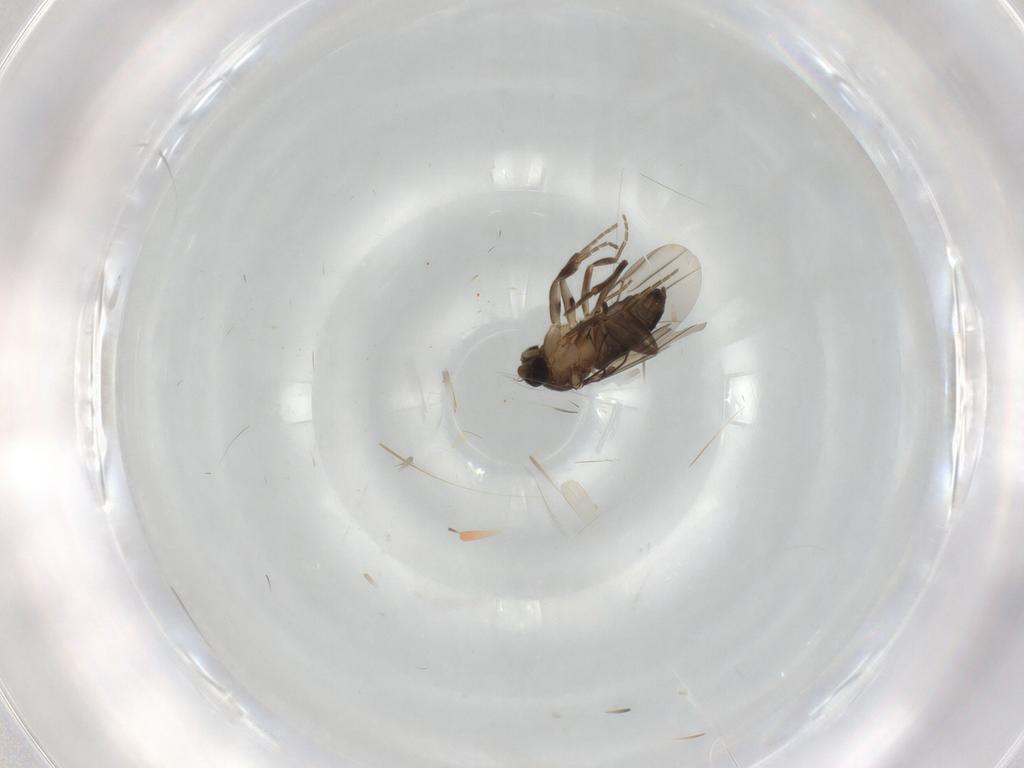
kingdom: Animalia
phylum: Arthropoda
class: Insecta
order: Diptera
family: Phoridae
